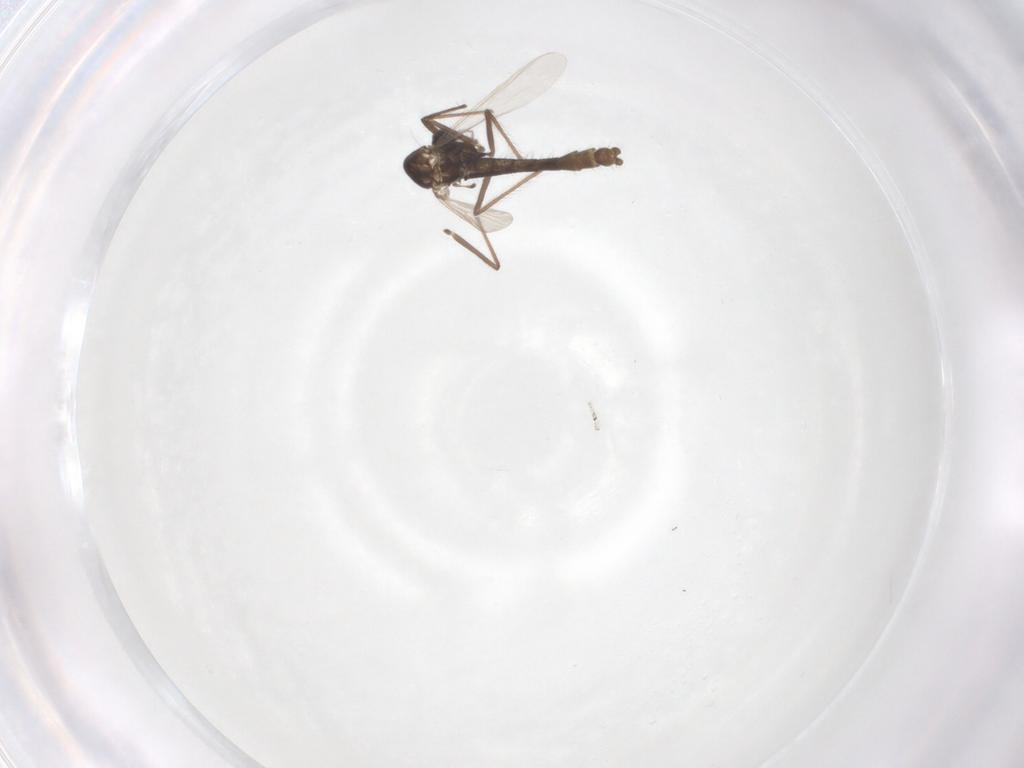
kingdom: Animalia
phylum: Arthropoda
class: Insecta
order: Diptera
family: Chironomidae
